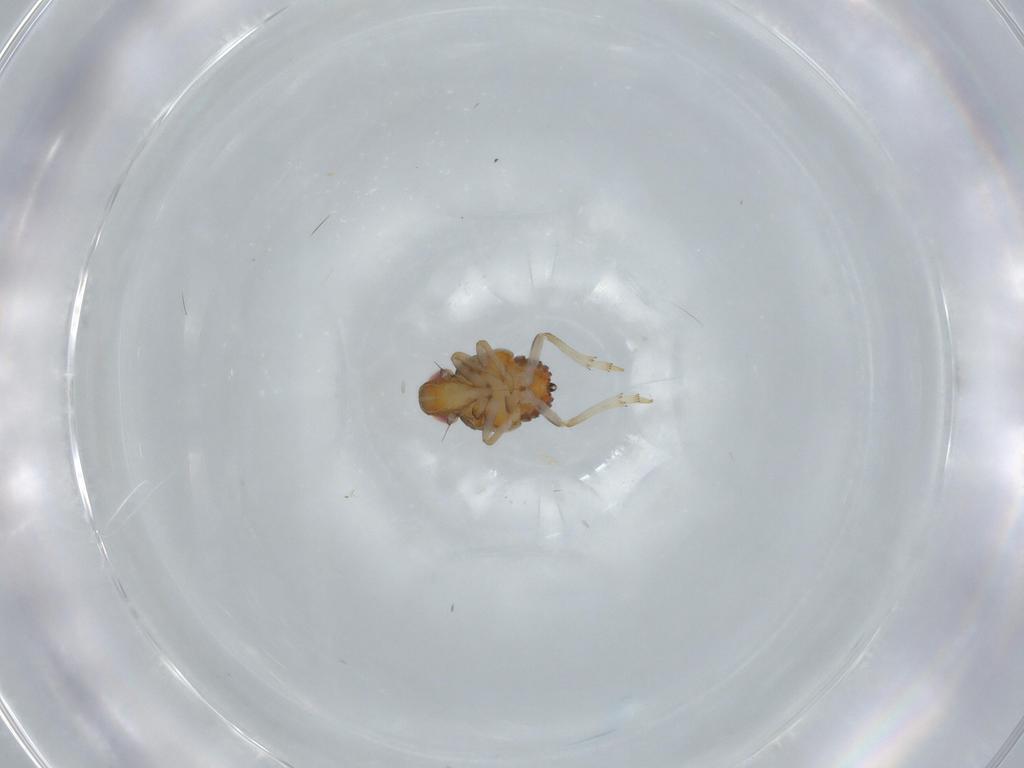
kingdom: Animalia
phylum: Arthropoda
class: Insecta
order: Hemiptera
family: Issidae
